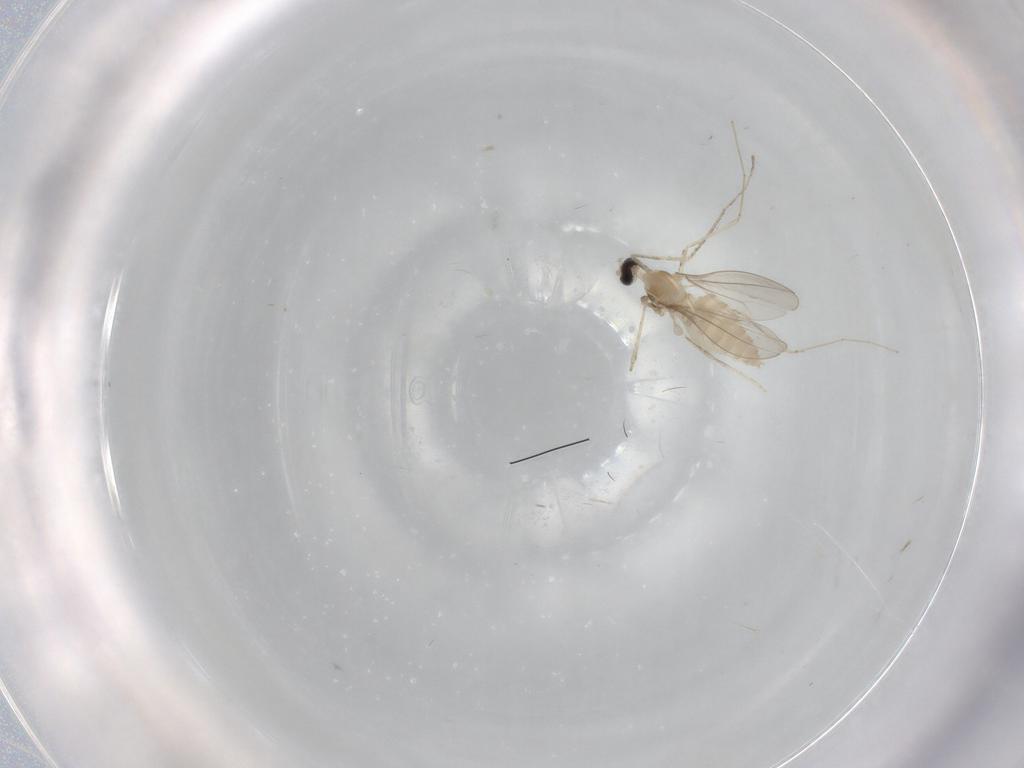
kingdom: Animalia
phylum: Arthropoda
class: Insecta
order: Diptera
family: Cecidomyiidae
